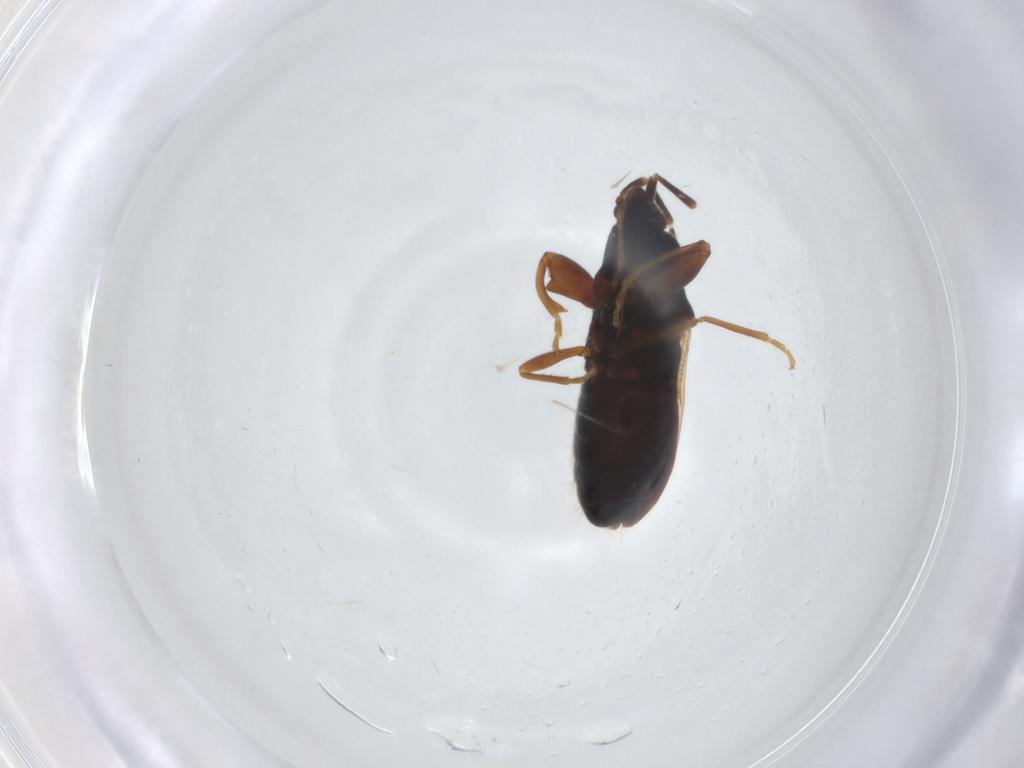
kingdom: Animalia
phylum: Arthropoda
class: Insecta
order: Hemiptera
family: Rhyparochromidae
